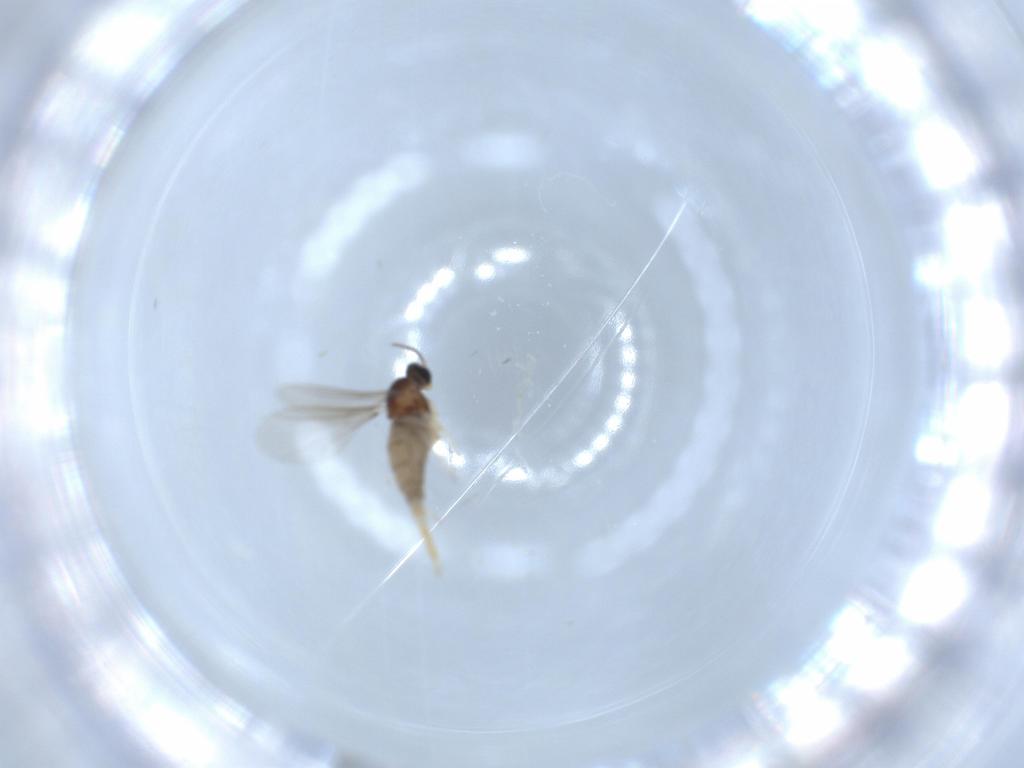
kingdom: Animalia
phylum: Arthropoda
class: Insecta
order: Diptera
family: Cecidomyiidae
